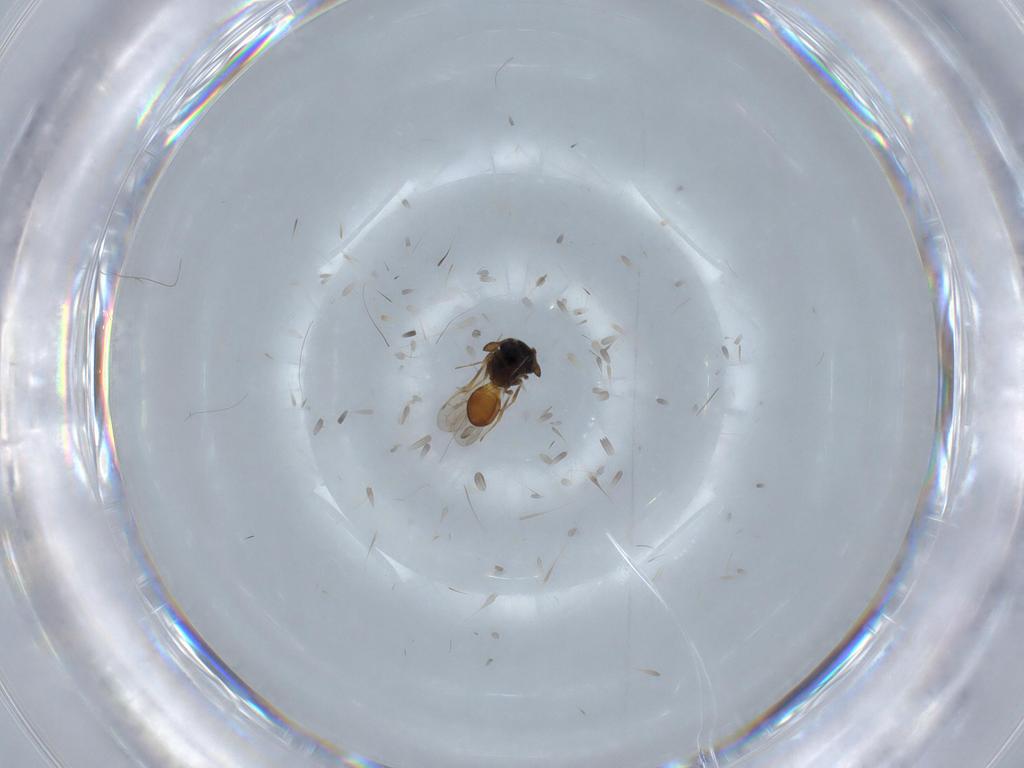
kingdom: Animalia
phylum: Arthropoda
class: Insecta
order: Hymenoptera
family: Scelionidae
